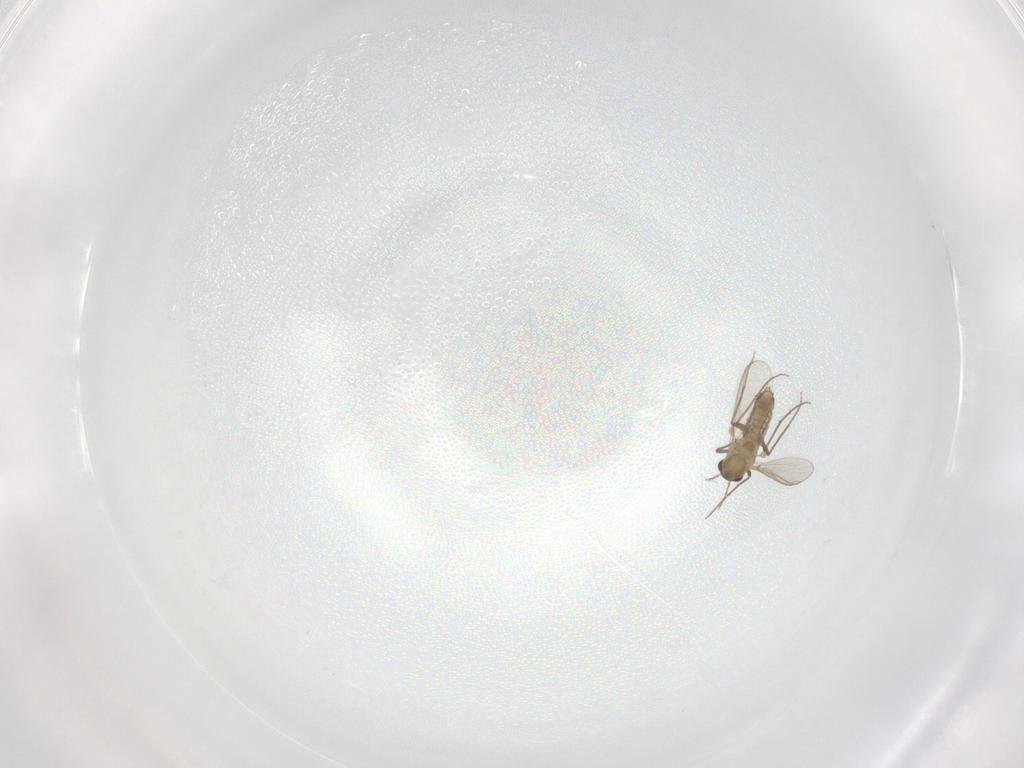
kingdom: Animalia
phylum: Arthropoda
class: Insecta
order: Diptera
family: Chironomidae
